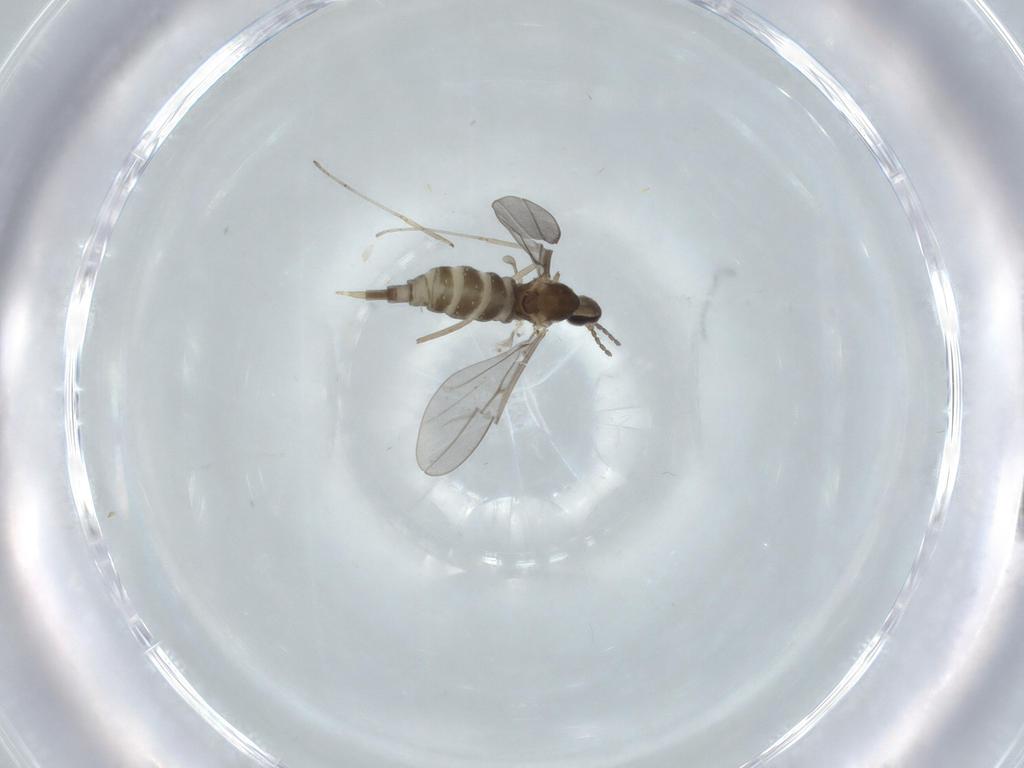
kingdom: Animalia
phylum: Arthropoda
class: Insecta
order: Diptera
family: Cecidomyiidae
